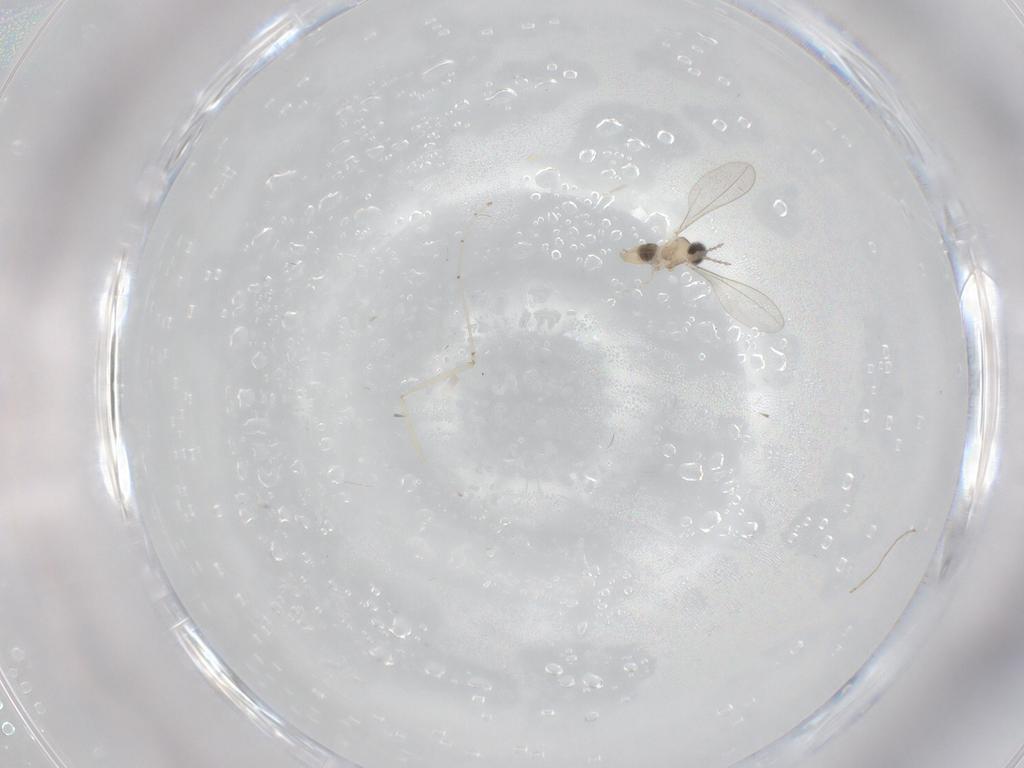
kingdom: Animalia
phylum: Arthropoda
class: Insecta
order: Diptera
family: Cecidomyiidae
